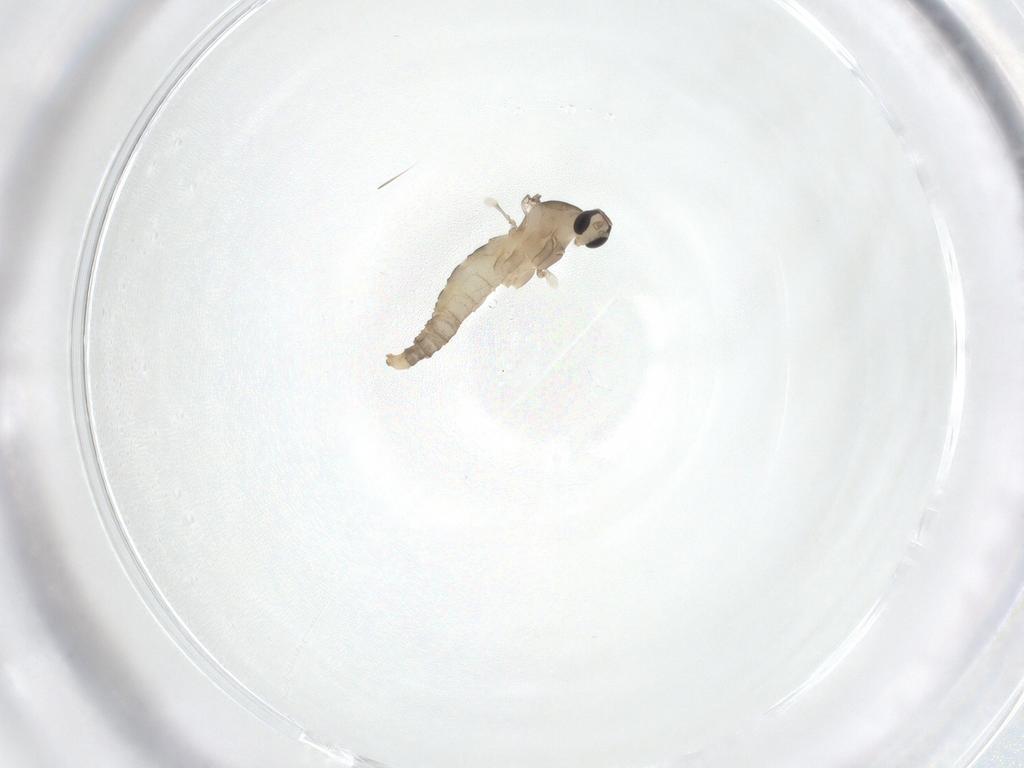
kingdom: Animalia
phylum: Arthropoda
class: Insecta
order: Diptera
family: Cecidomyiidae
